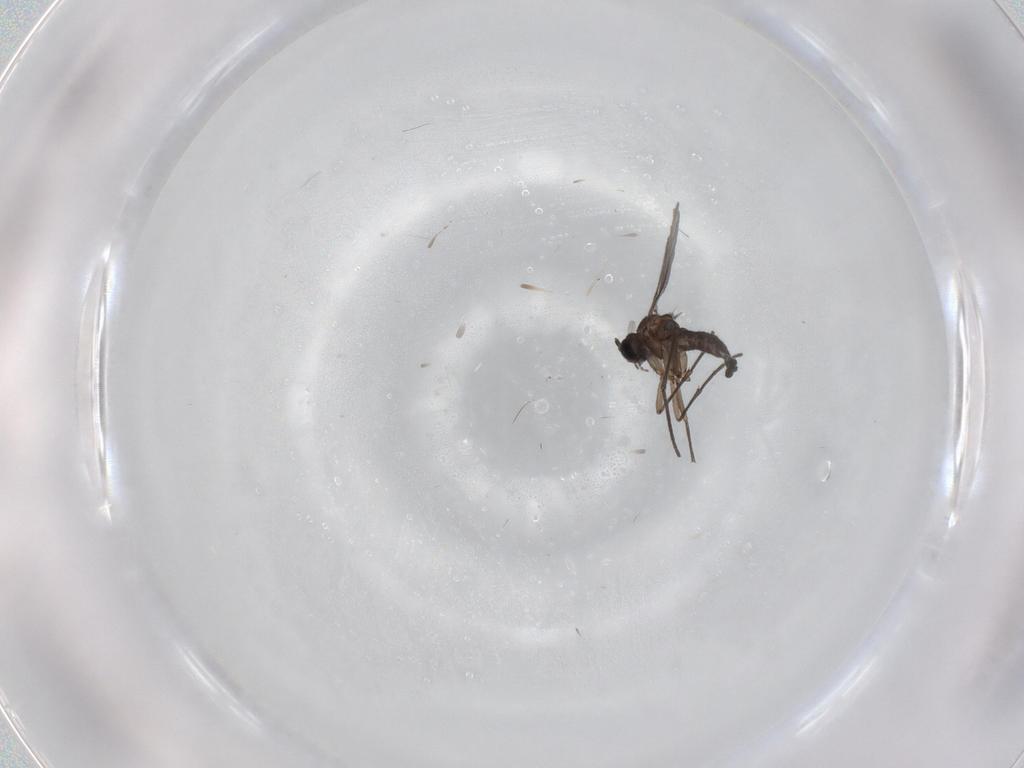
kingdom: Animalia
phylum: Arthropoda
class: Insecta
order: Diptera
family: Sciaridae
